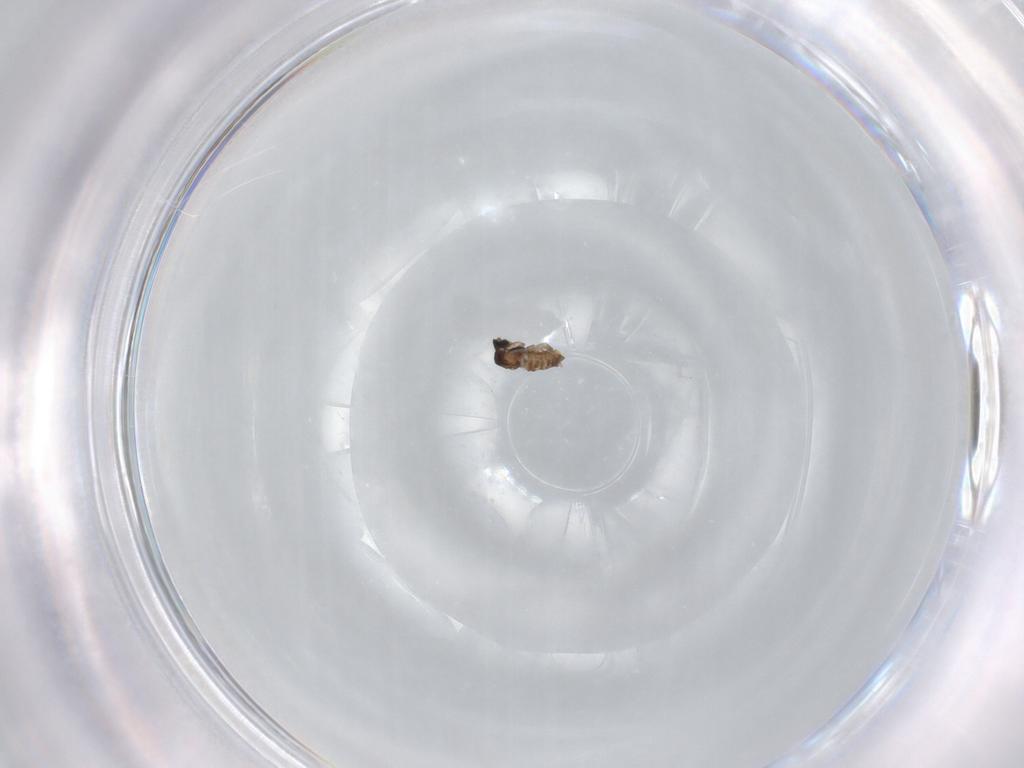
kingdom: Animalia
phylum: Arthropoda
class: Insecta
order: Diptera
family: Cecidomyiidae
